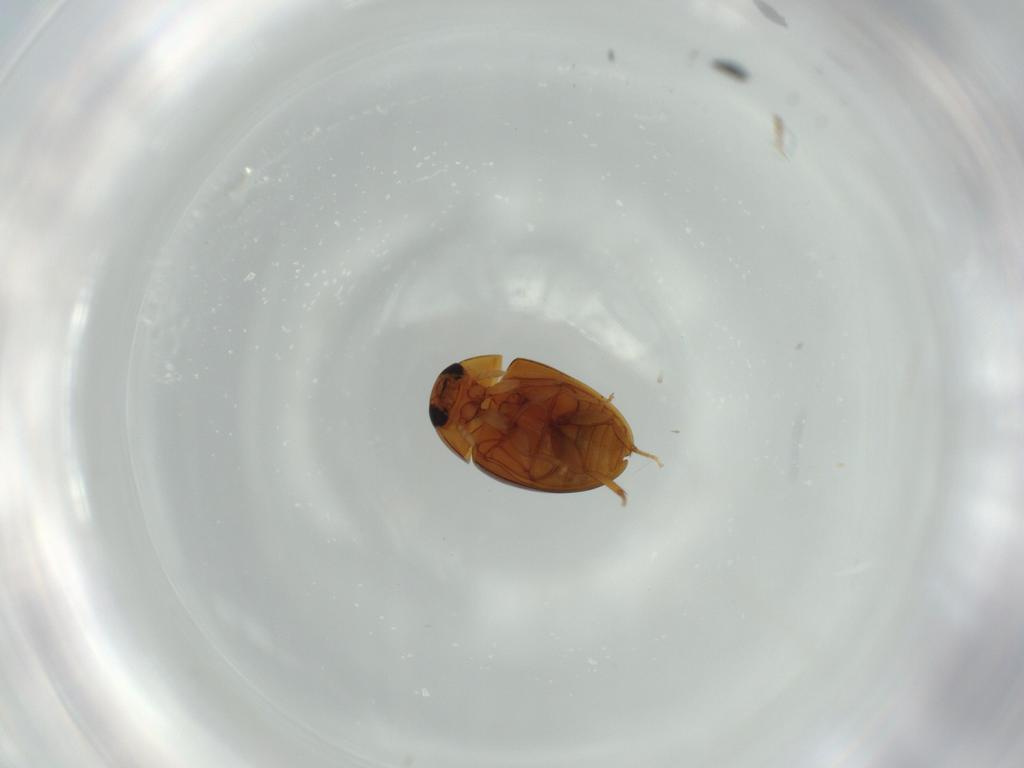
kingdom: Animalia
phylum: Arthropoda
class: Insecta
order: Coleoptera
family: Phalacridae
